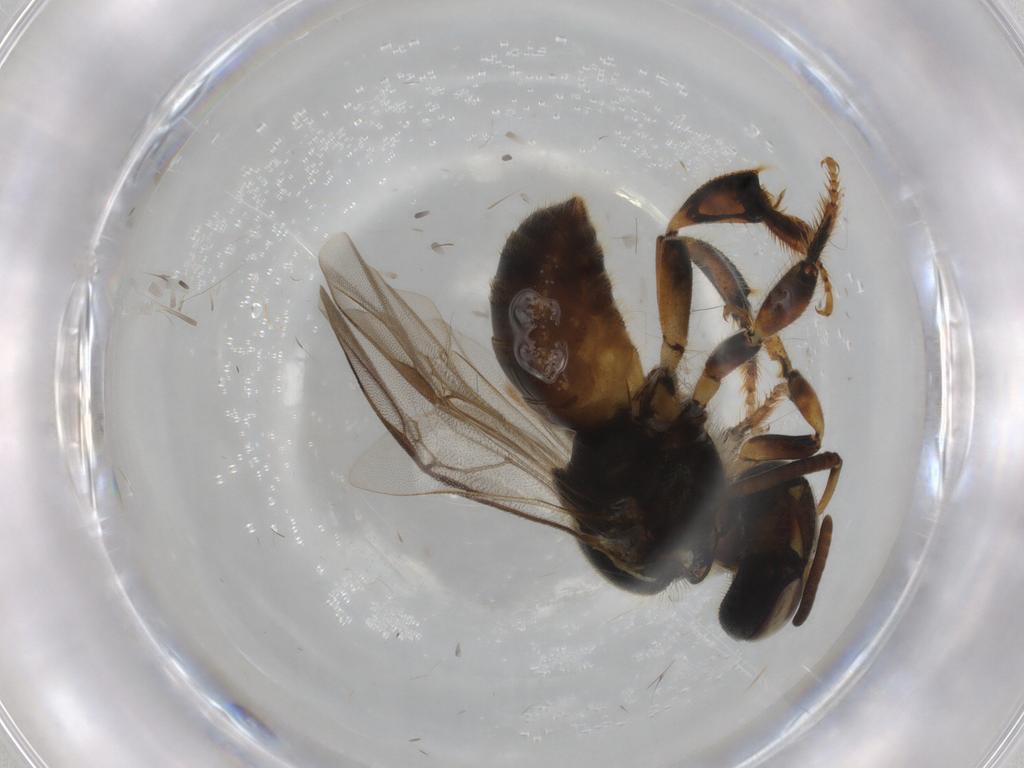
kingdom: Animalia
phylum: Arthropoda
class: Insecta
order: Hymenoptera
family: Apidae
